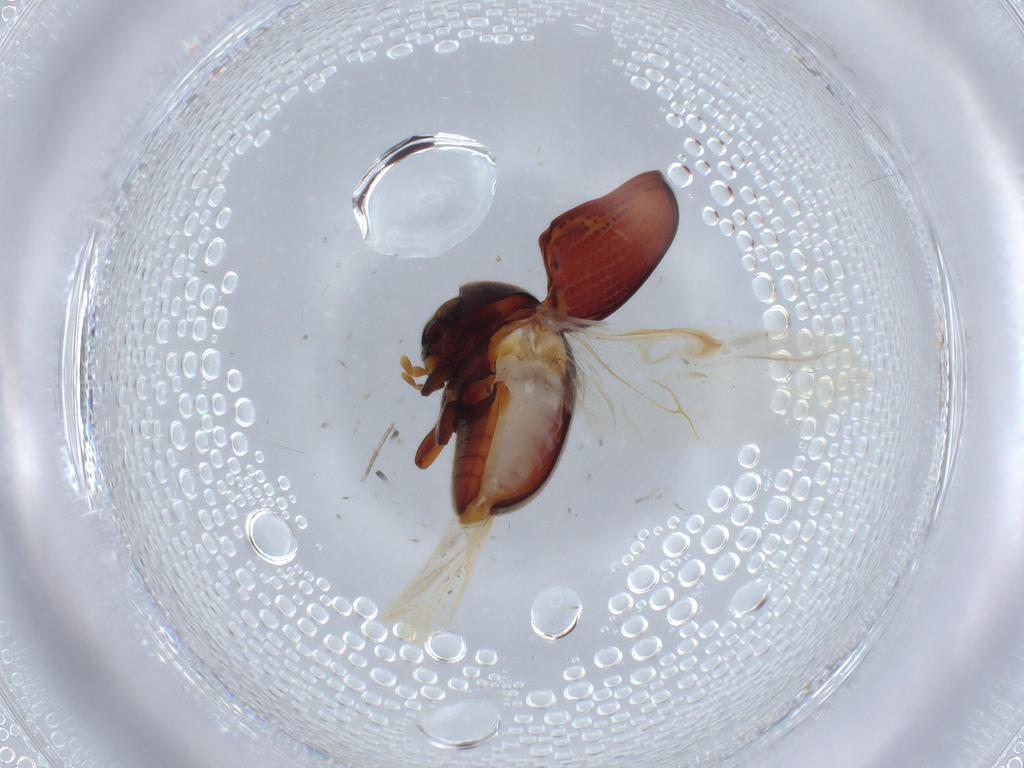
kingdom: Animalia
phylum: Arthropoda
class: Insecta
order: Coleoptera
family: Ptinidae
